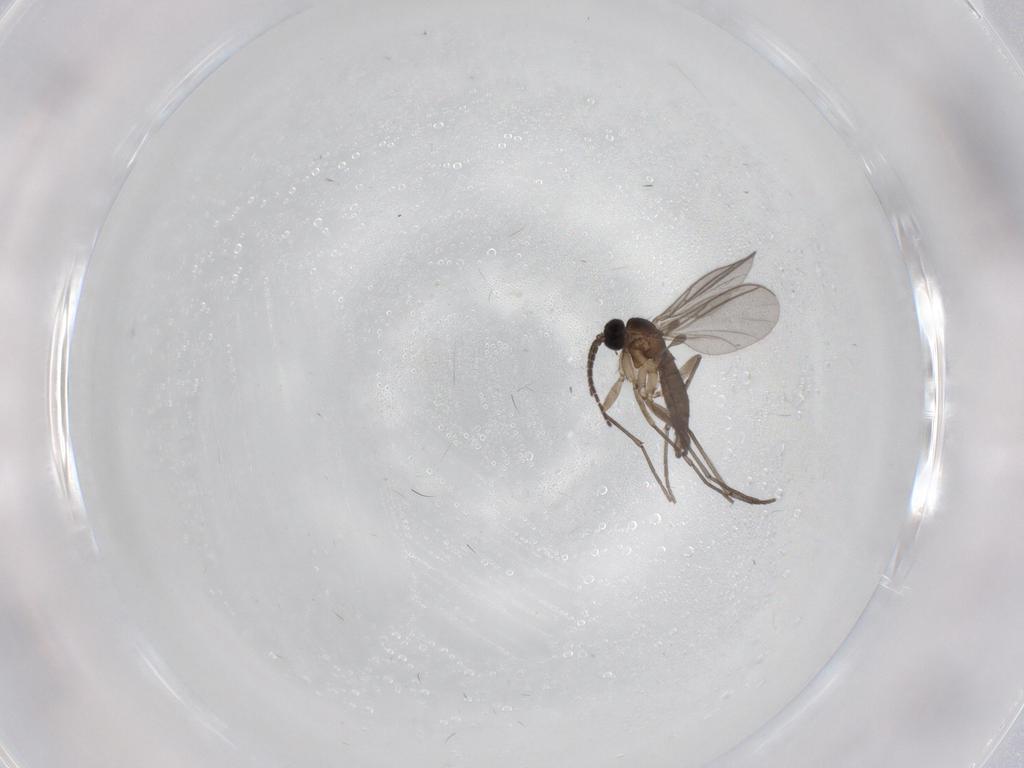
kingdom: Animalia
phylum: Arthropoda
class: Insecta
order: Diptera
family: Sciaridae
